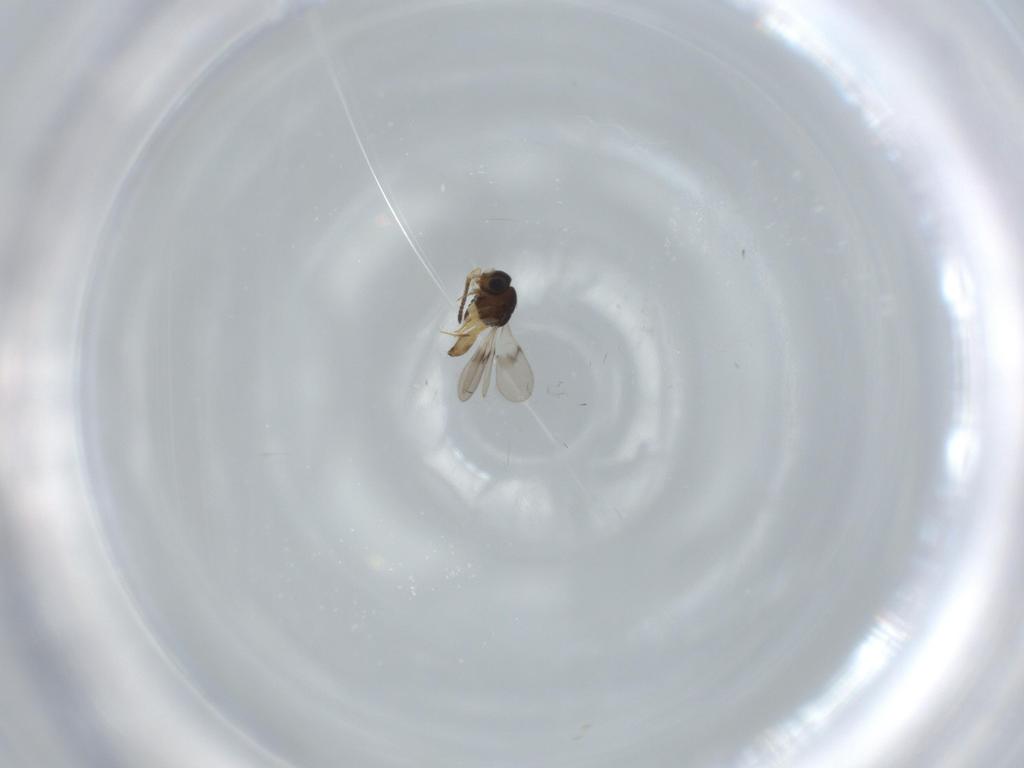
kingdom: Animalia
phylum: Arthropoda
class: Insecta
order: Hymenoptera
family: Scelionidae
